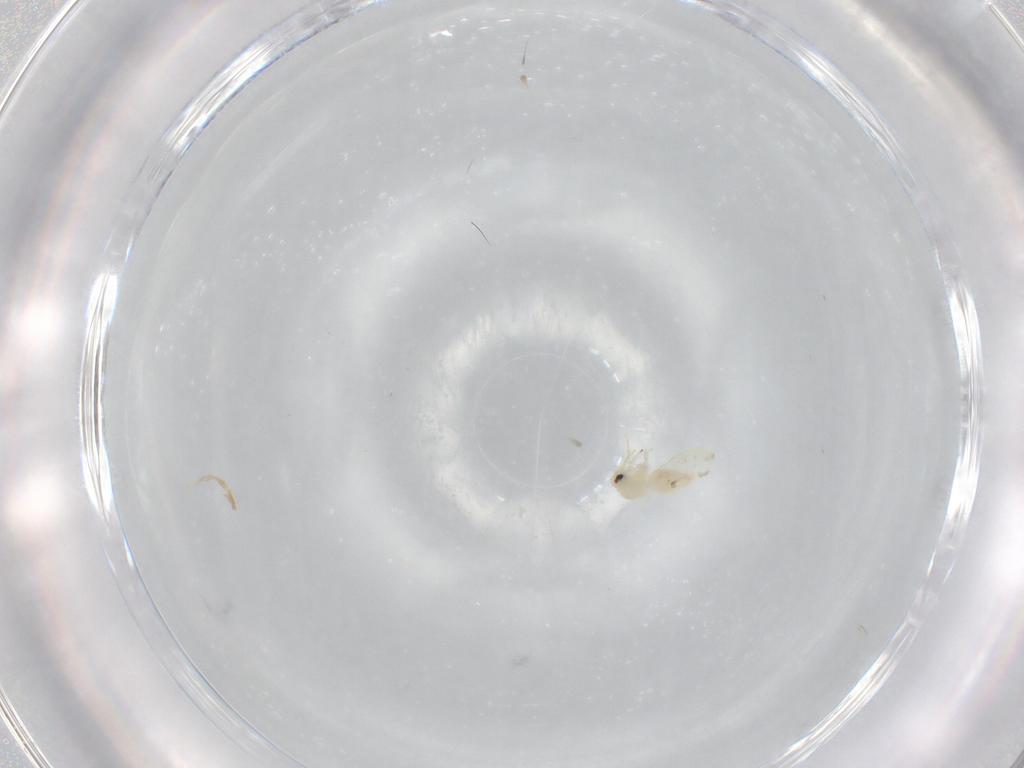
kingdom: Animalia
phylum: Arthropoda
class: Insecta
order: Hemiptera
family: Aleyrodidae
